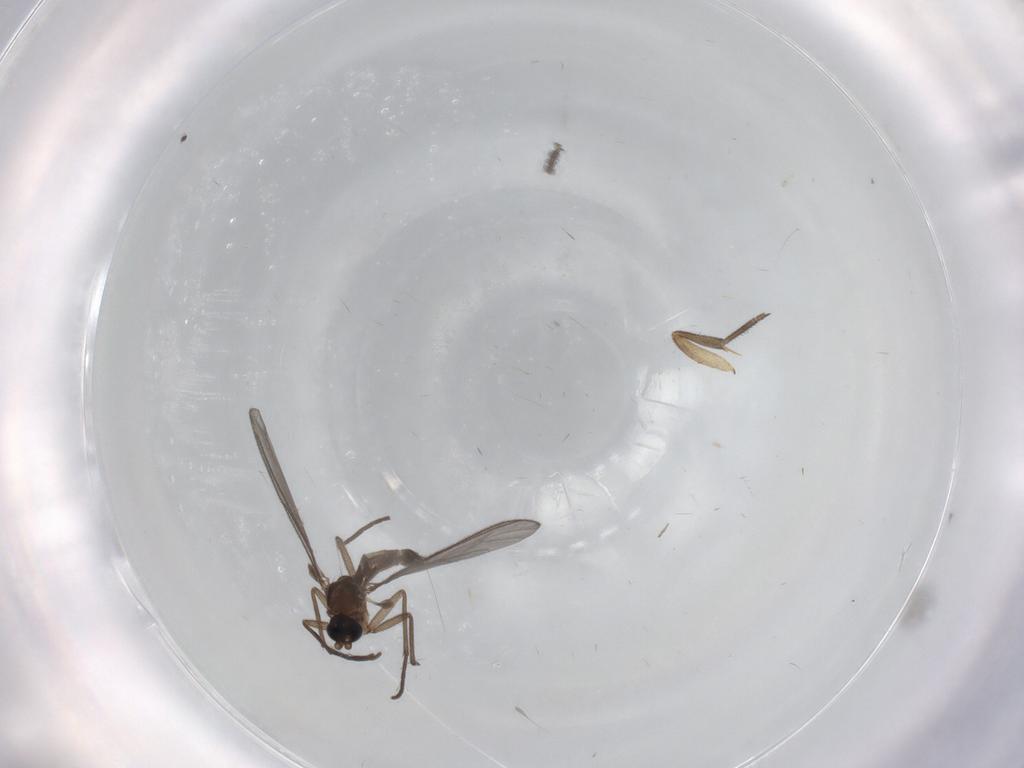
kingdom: Animalia
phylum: Arthropoda
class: Insecta
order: Diptera
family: Sciaridae
